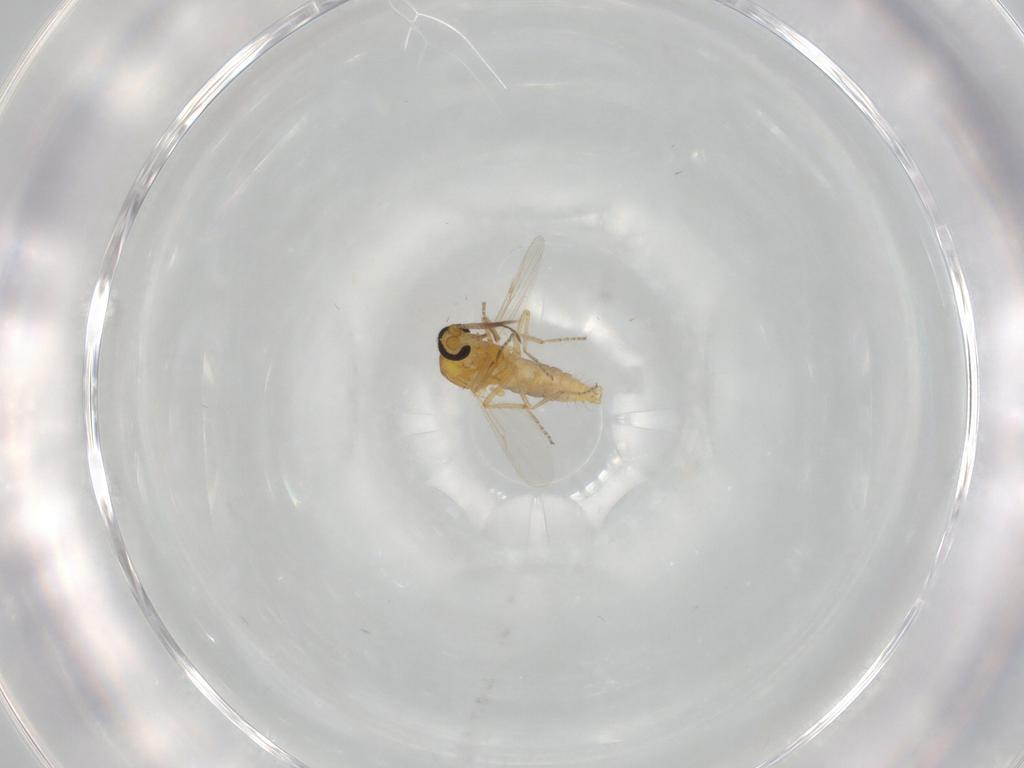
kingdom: Animalia
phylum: Arthropoda
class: Insecta
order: Diptera
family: Ceratopogonidae
